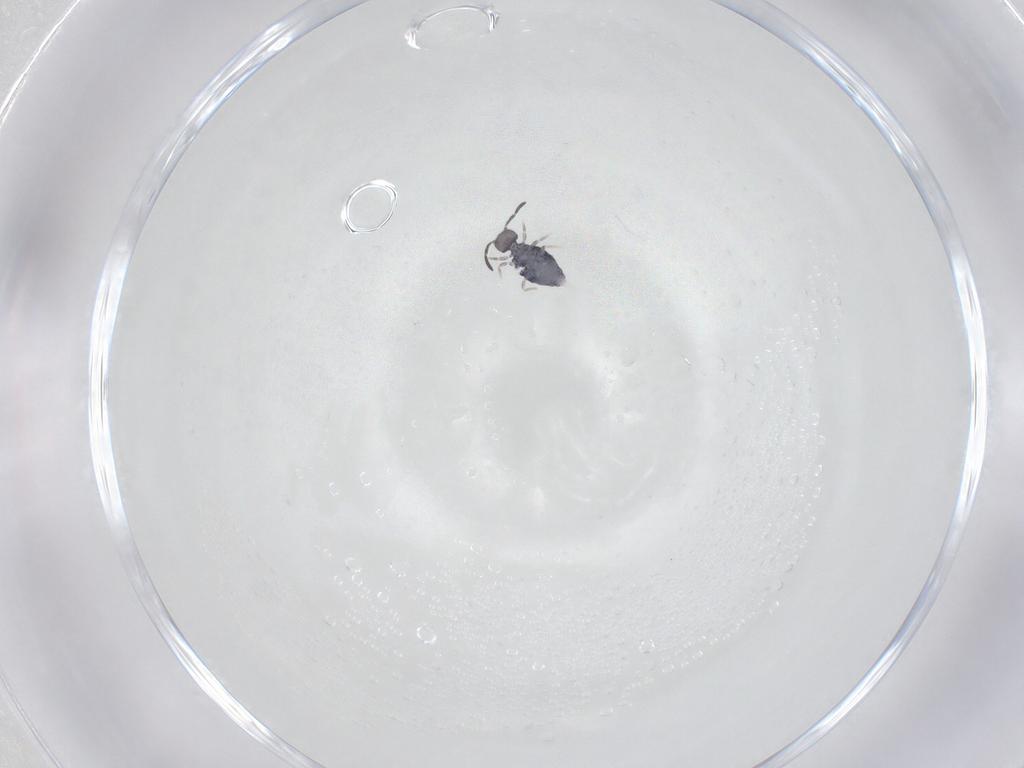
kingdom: Animalia
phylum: Arthropoda
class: Collembola
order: Symphypleona
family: Katiannidae
